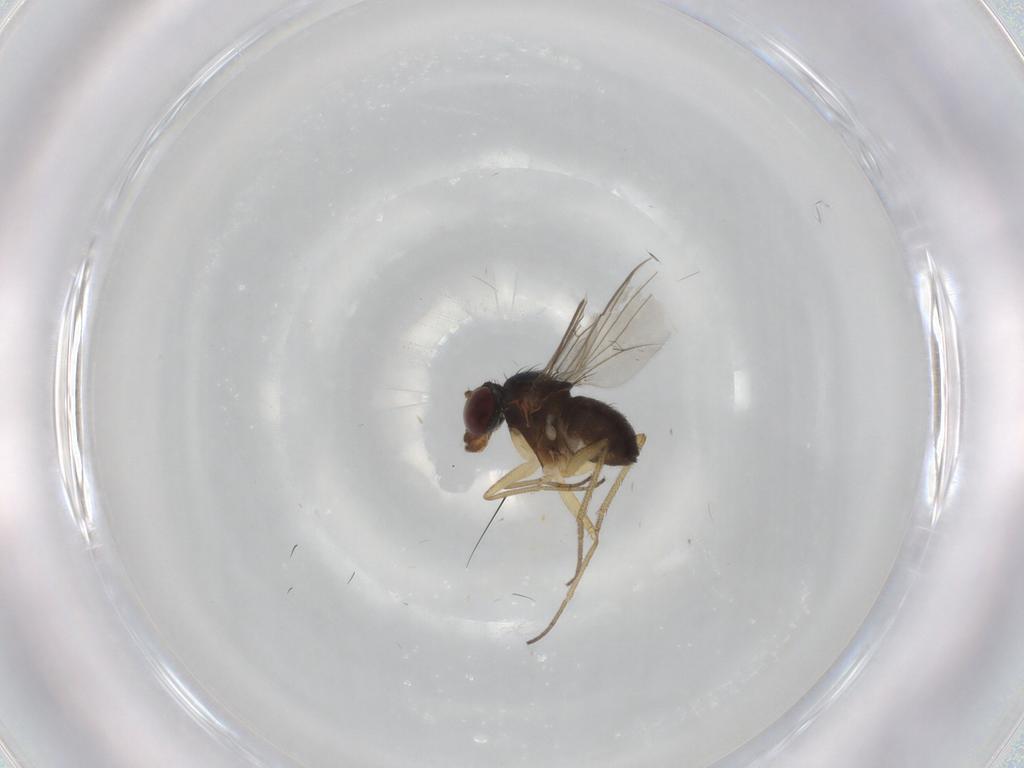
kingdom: Animalia
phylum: Arthropoda
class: Insecta
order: Diptera
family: Dolichopodidae
